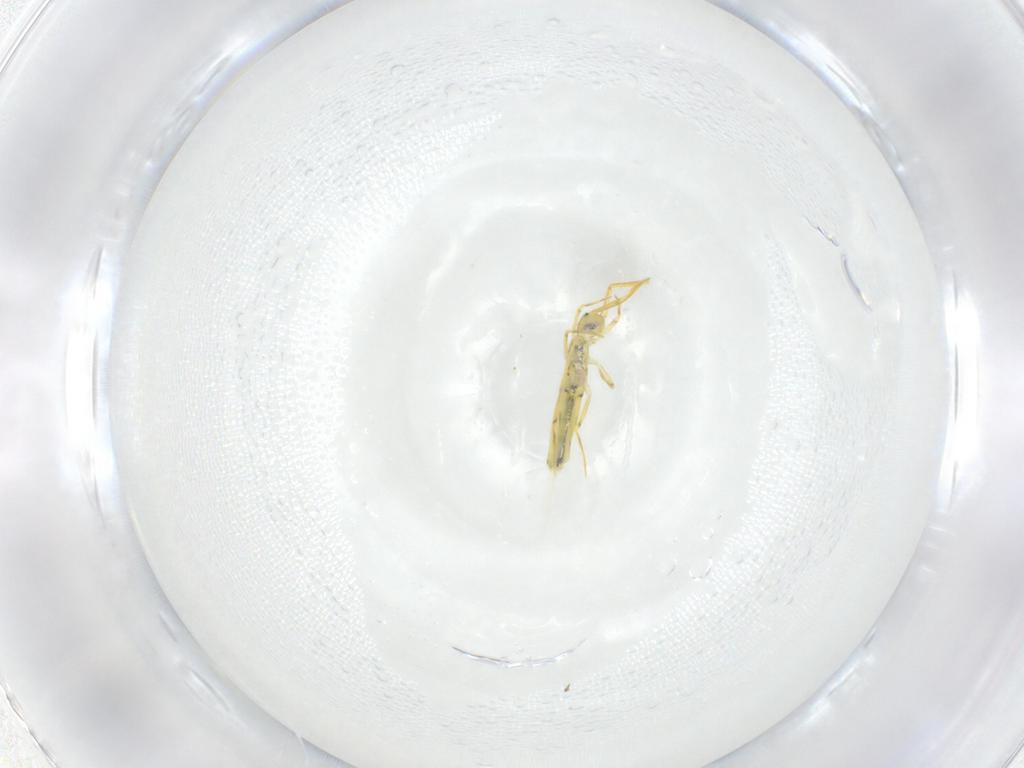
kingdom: Animalia
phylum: Arthropoda
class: Collembola
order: Entomobryomorpha
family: Entomobryidae
